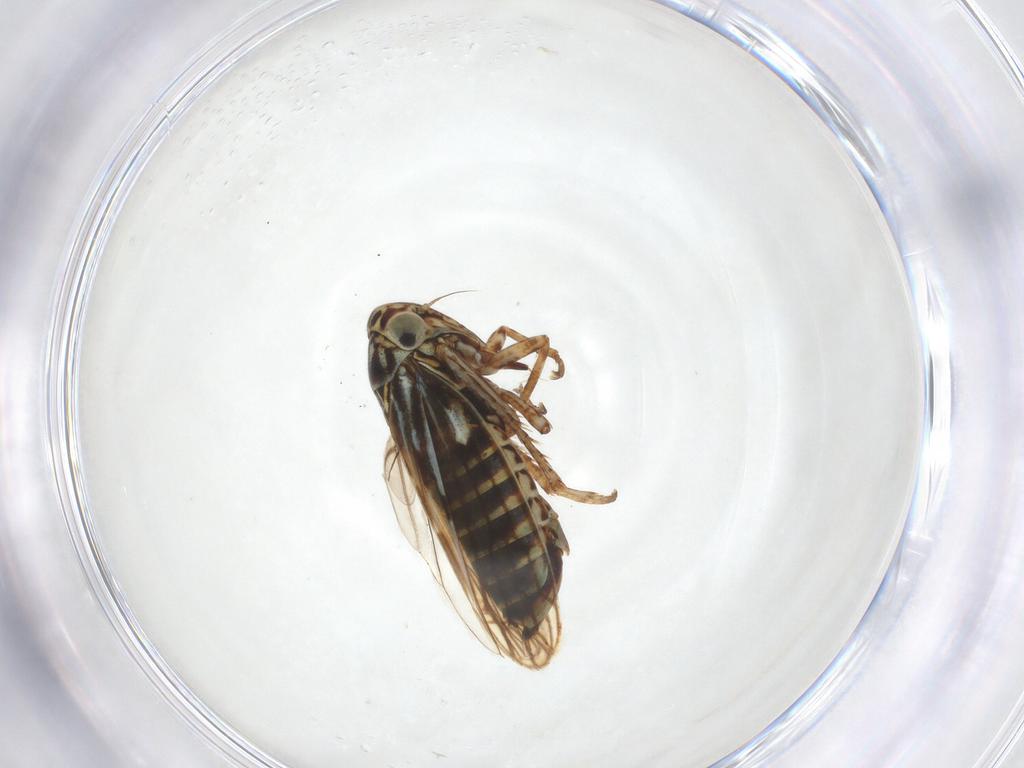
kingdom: Animalia
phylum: Arthropoda
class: Insecta
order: Hemiptera
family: Cicadellidae
